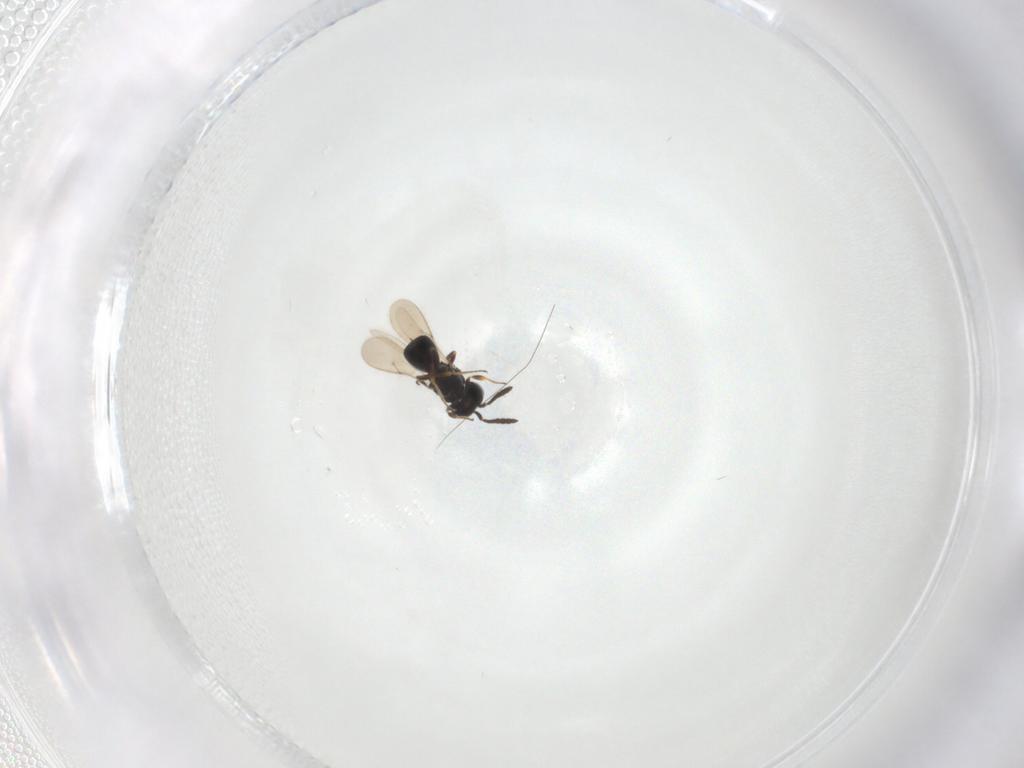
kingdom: Animalia
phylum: Arthropoda
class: Insecta
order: Hymenoptera
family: Scelionidae
